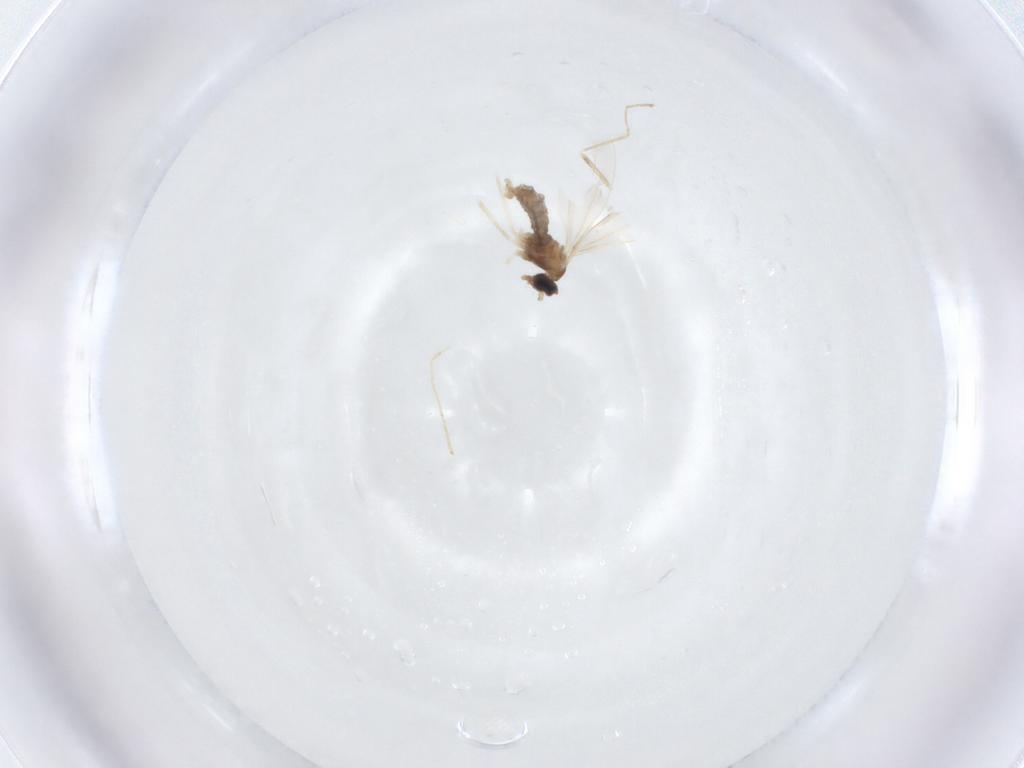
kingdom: Animalia
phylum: Arthropoda
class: Insecta
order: Diptera
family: Cecidomyiidae
